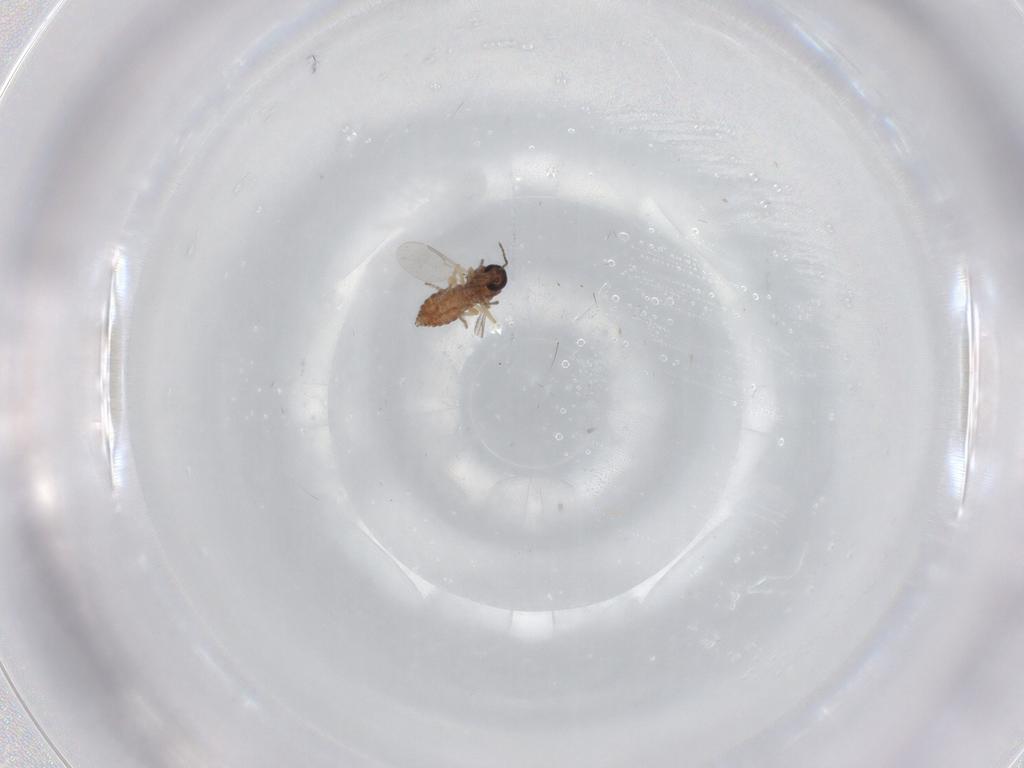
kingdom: Animalia
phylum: Arthropoda
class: Insecta
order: Diptera
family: Ceratopogonidae
